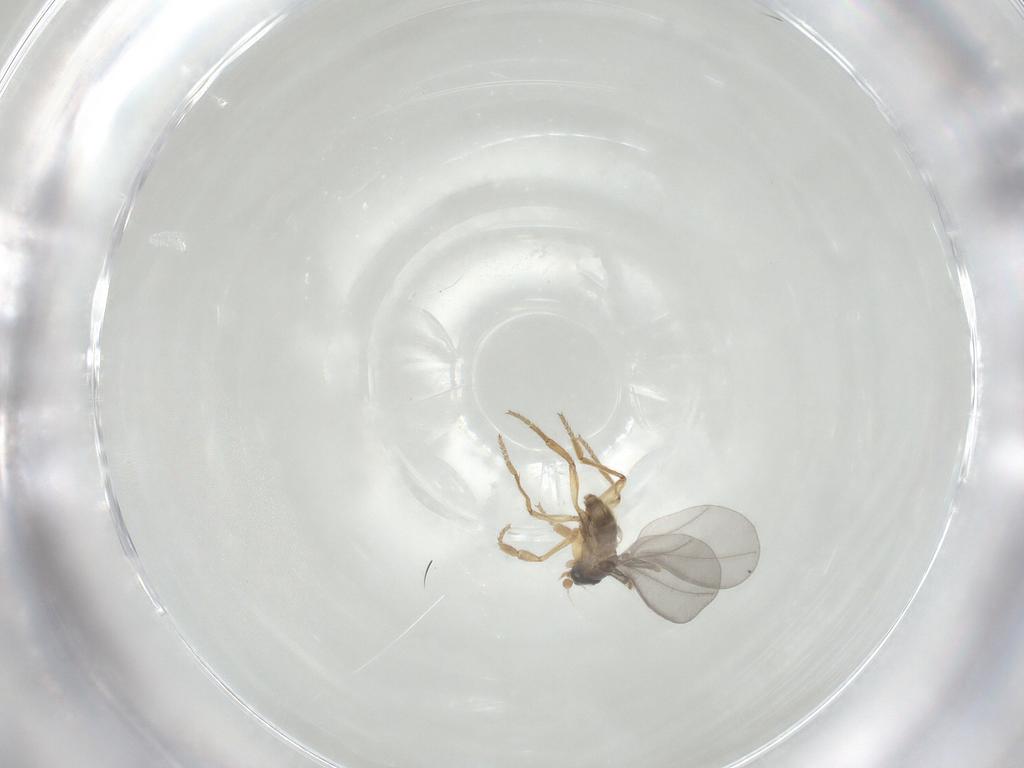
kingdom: Animalia
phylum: Arthropoda
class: Insecta
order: Diptera
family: Phoridae
